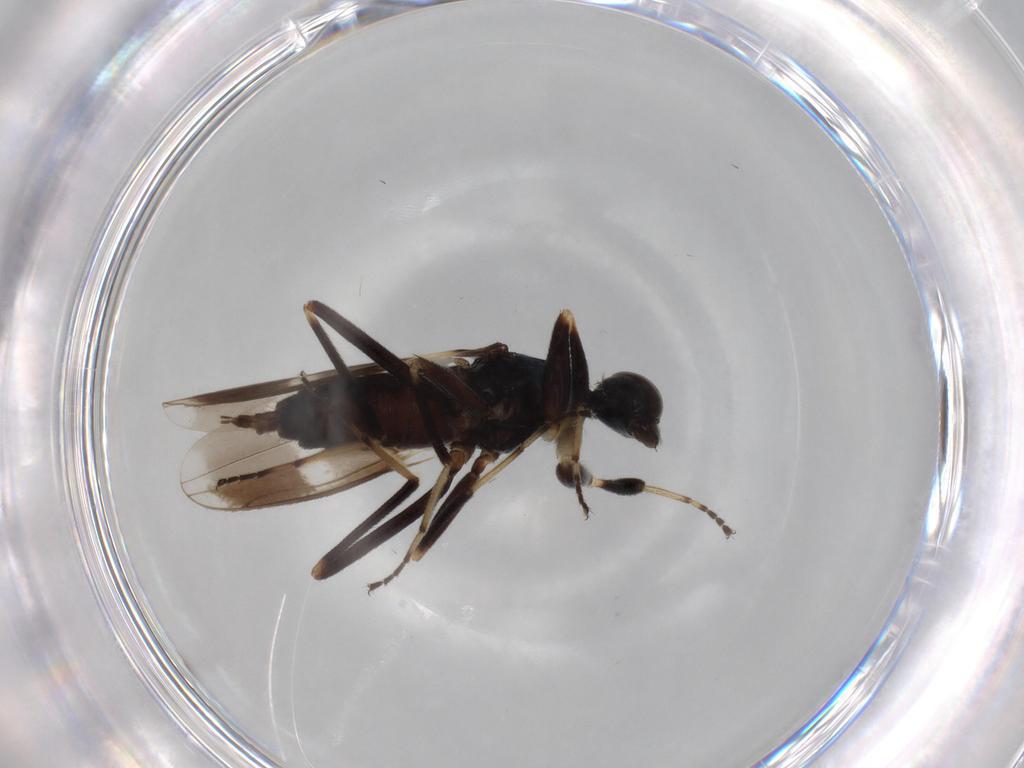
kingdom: Animalia
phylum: Arthropoda
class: Insecta
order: Diptera
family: Hybotidae
